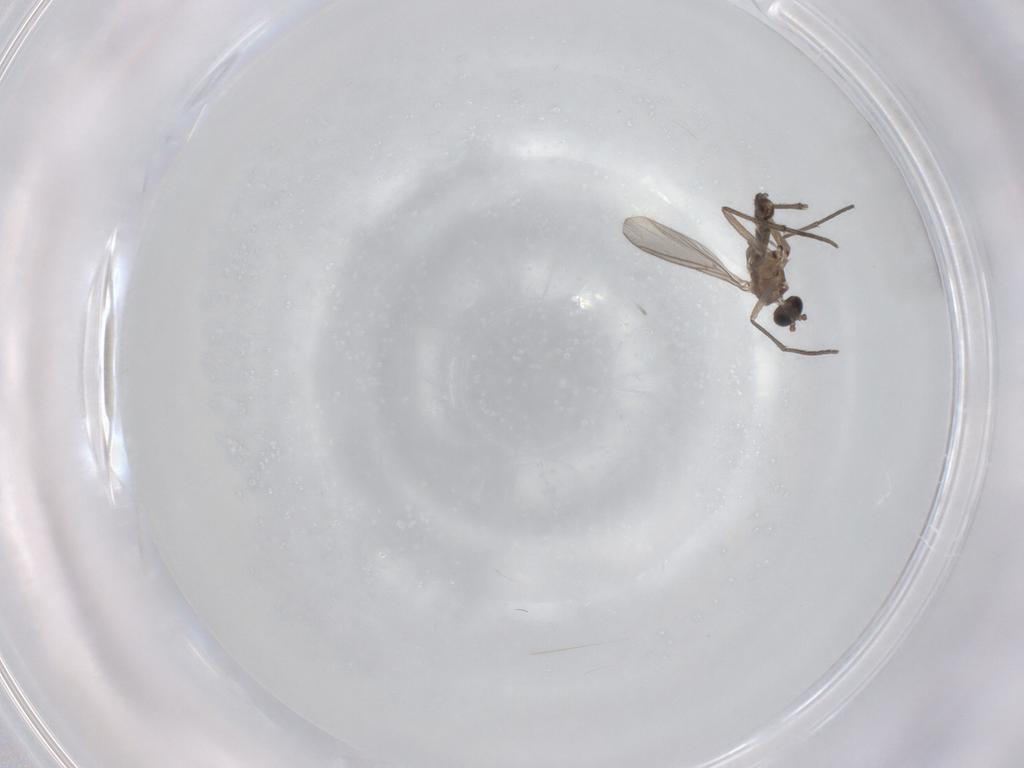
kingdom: Animalia
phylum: Arthropoda
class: Insecta
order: Diptera
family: Sciaridae
